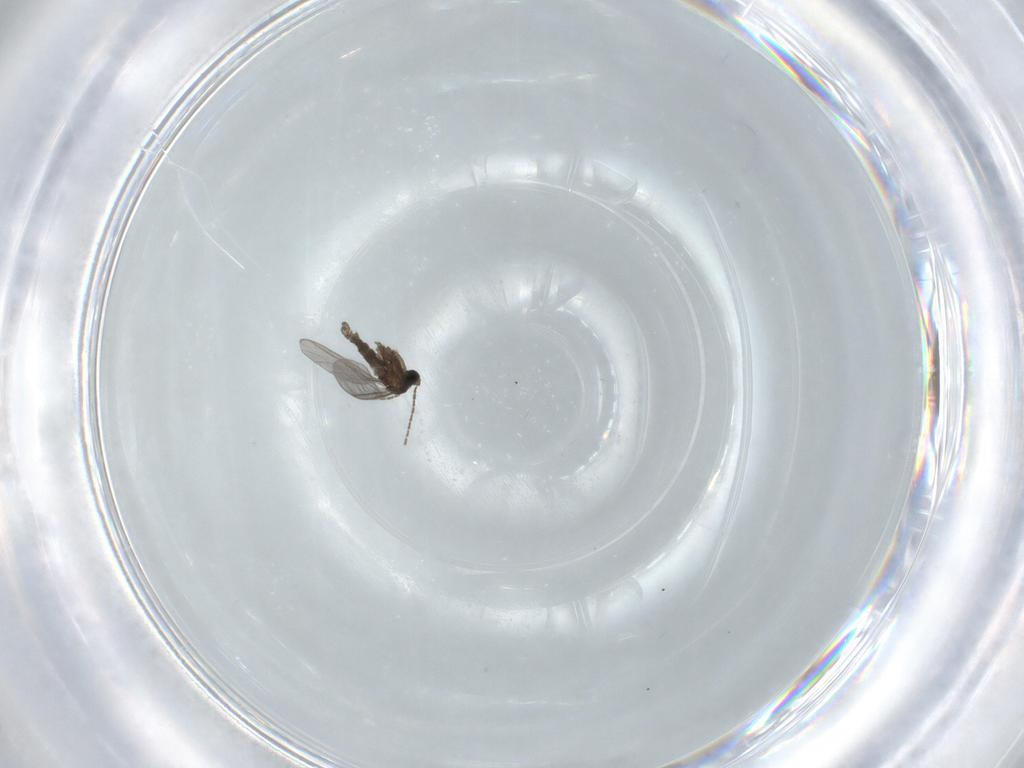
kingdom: Animalia
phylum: Arthropoda
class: Insecta
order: Diptera
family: Sciaridae
